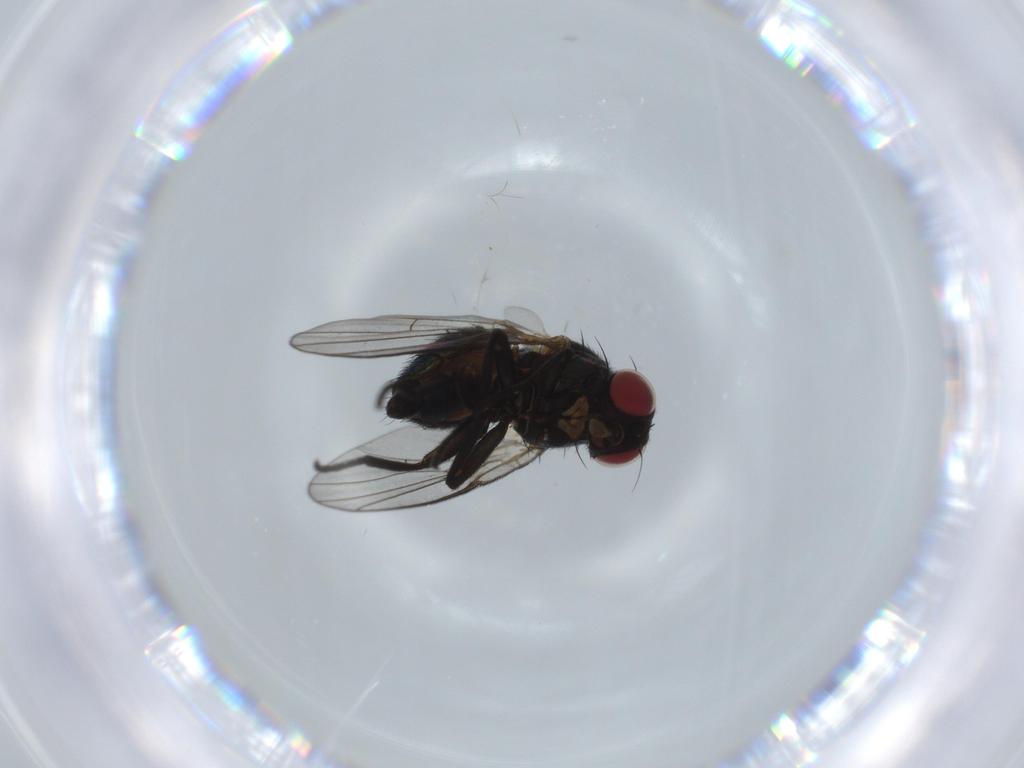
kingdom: Animalia
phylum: Arthropoda
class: Insecta
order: Diptera
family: Agromyzidae
